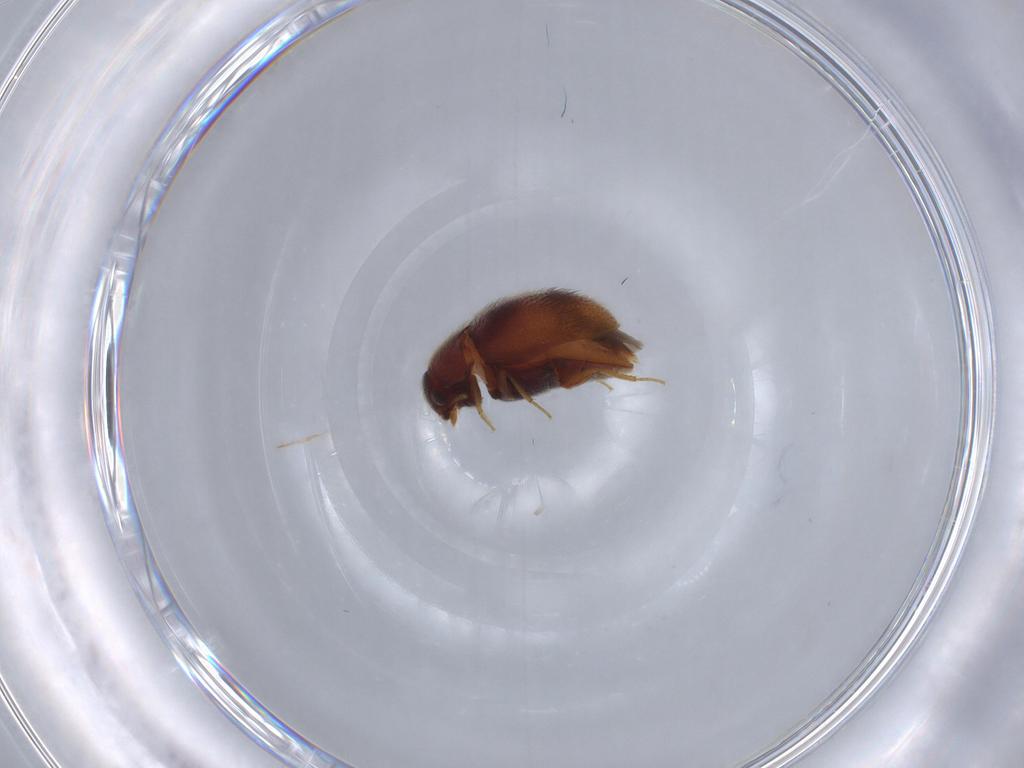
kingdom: Animalia
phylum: Arthropoda
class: Insecta
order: Coleoptera
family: Dermestidae
